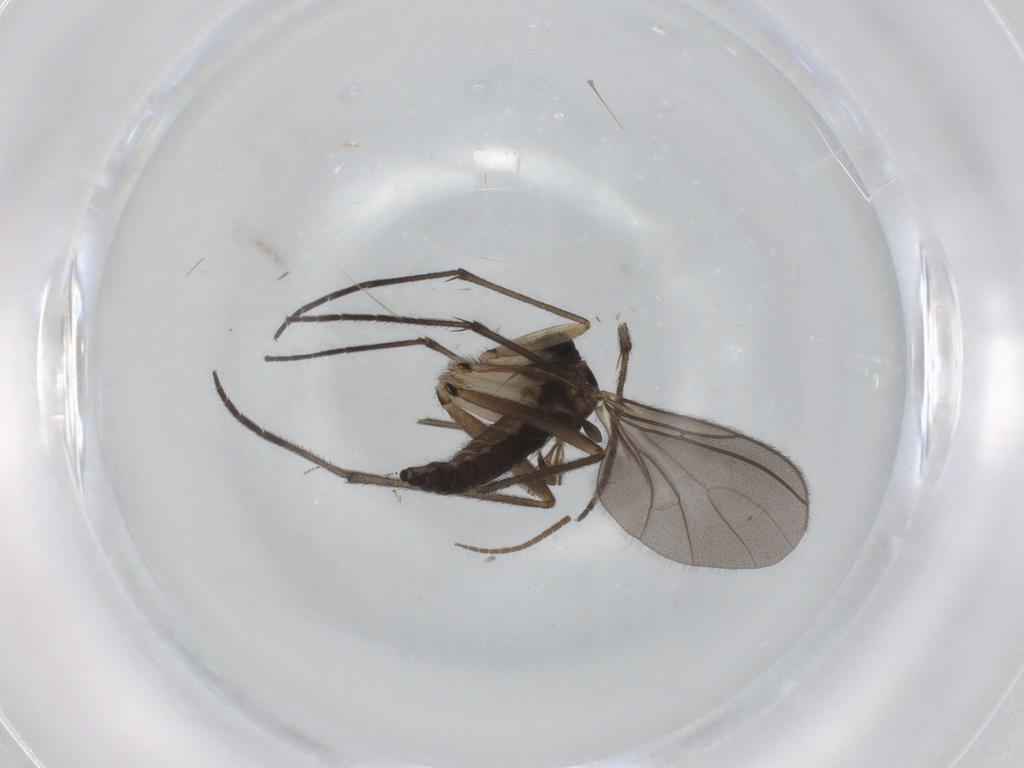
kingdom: Animalia
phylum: Arthropoda
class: Insecta
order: Diptera
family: Sciaridae
